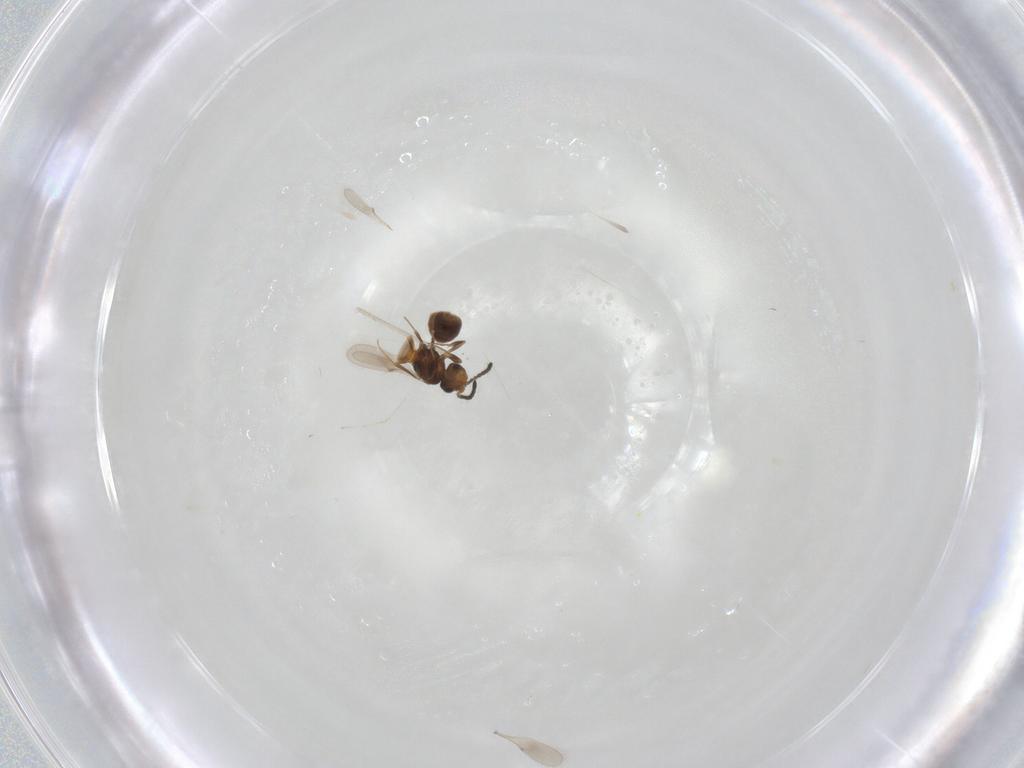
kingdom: Animalia
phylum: Arthropoda
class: Insecta
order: Hymenoptera
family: Scelionidae
